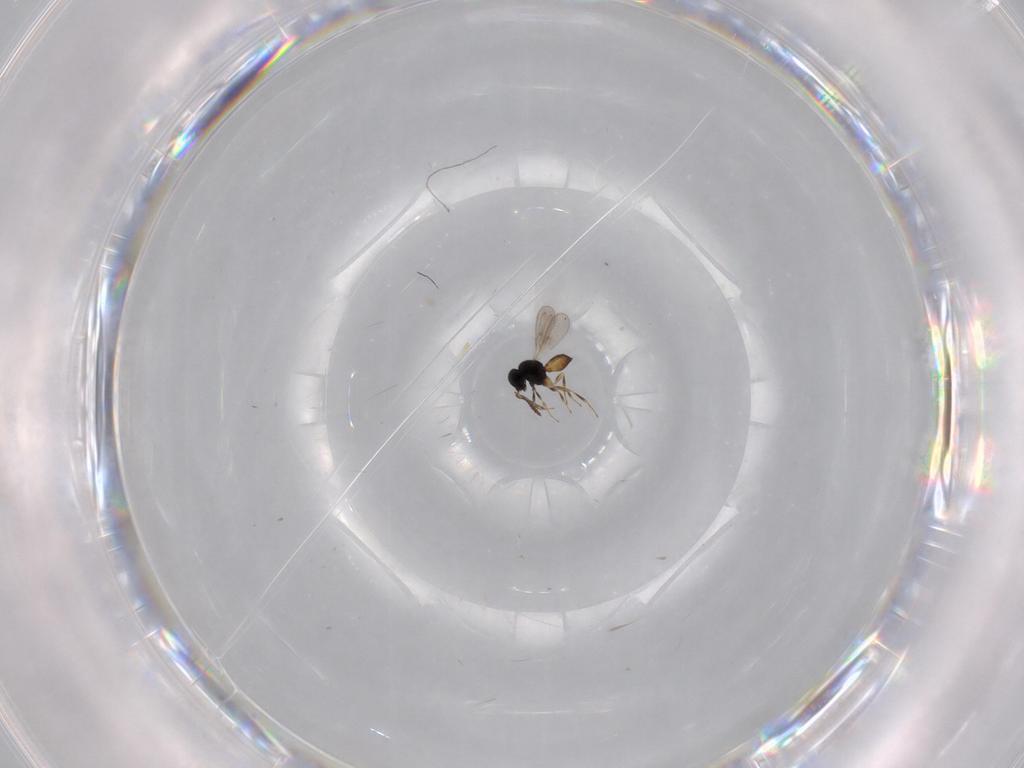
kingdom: Animalia
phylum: Arthropoda
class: Insecta
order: Hymenoptera
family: Scelionidae
